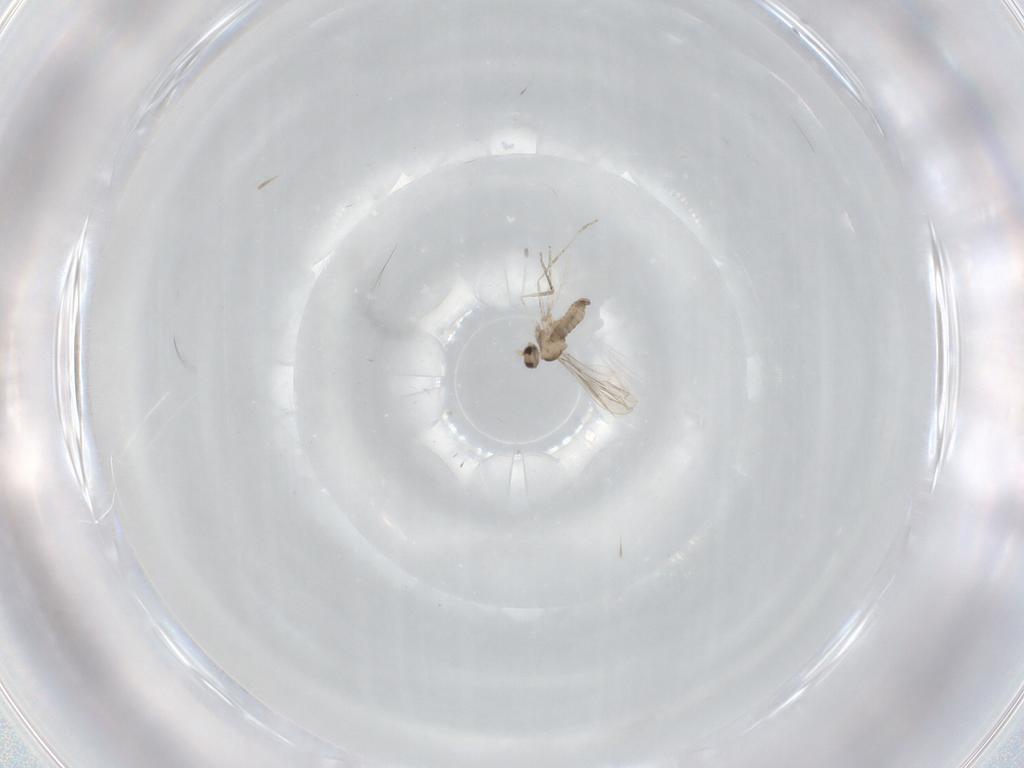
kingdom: Animalia
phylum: Arthropoda
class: Insecta
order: Diptera
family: Cecidomyiidae
